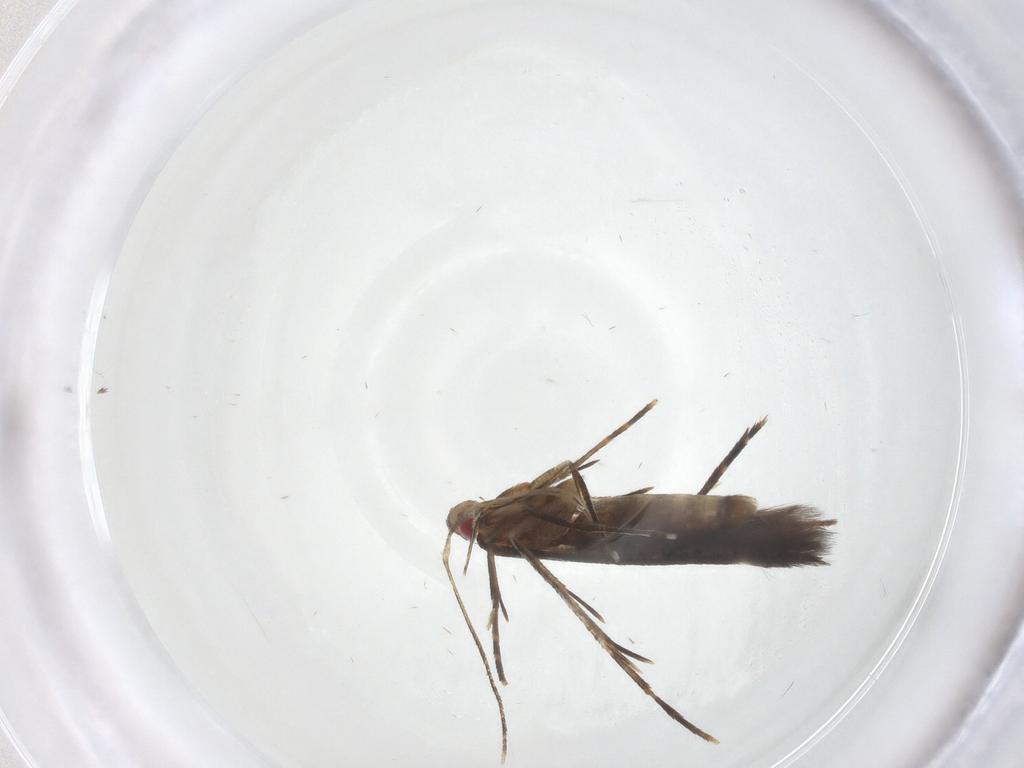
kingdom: Animalia
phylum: Arthropoda
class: Insecta
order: Lepidoptera
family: Cosmopterigidae
